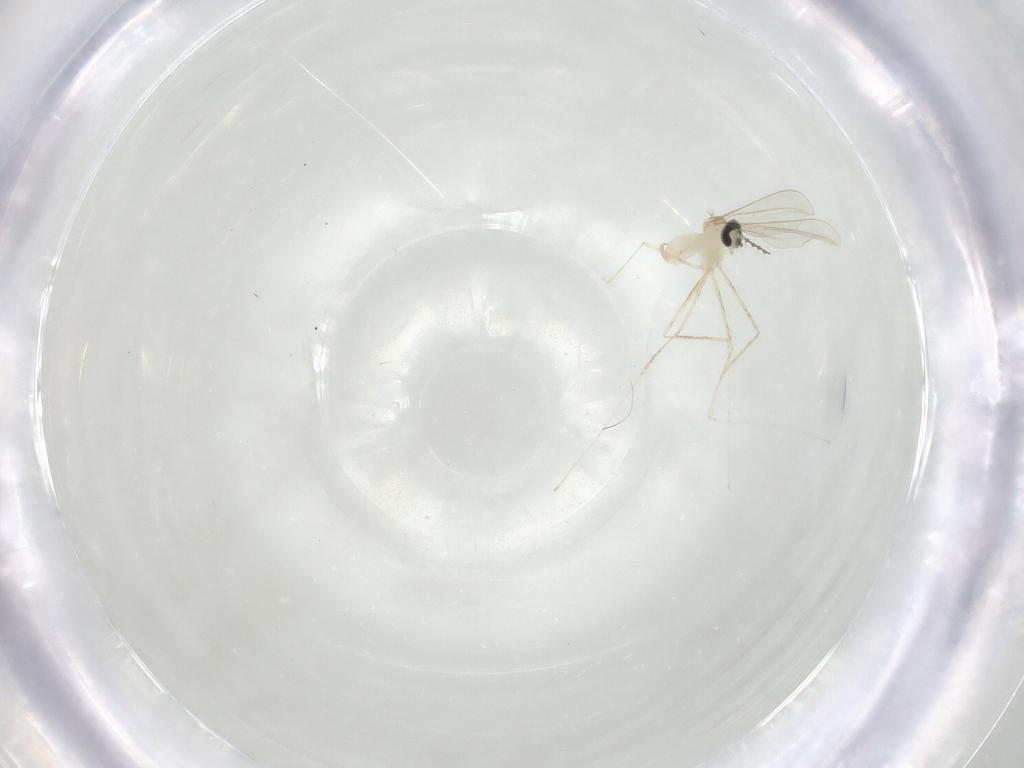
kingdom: Animalia
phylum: Arthropoda
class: Insecta
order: Diptera
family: Cecidomyiidae
